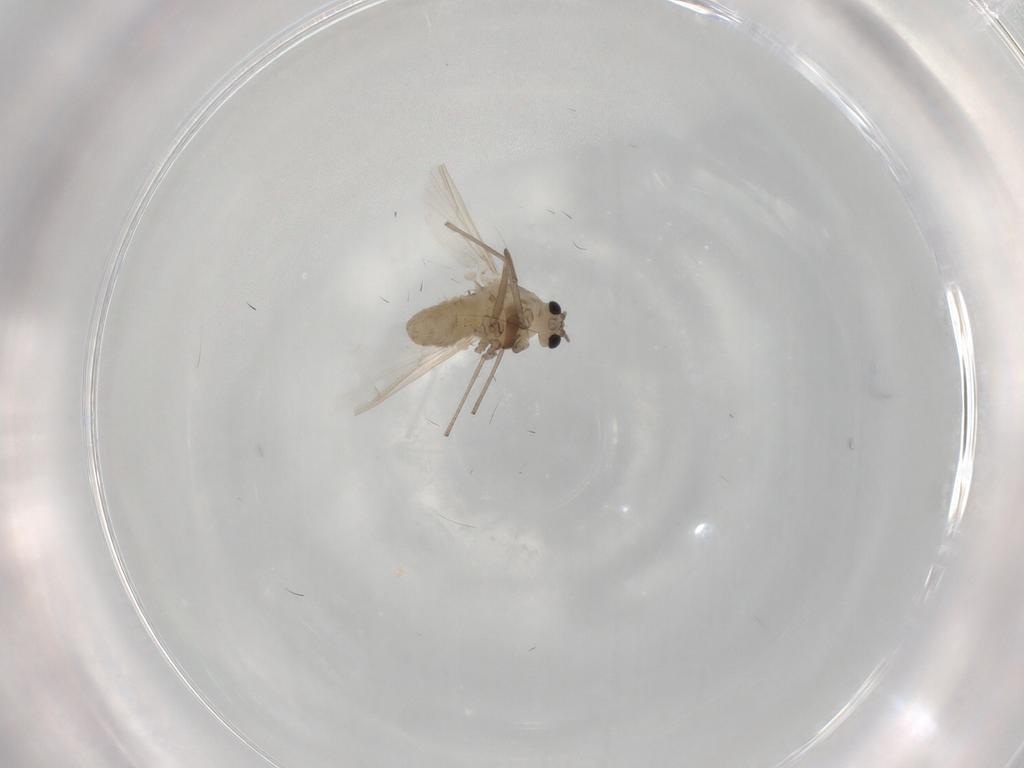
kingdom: Animalia
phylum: Arthropoda
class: Insecta
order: Diptera
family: Chironomidae
